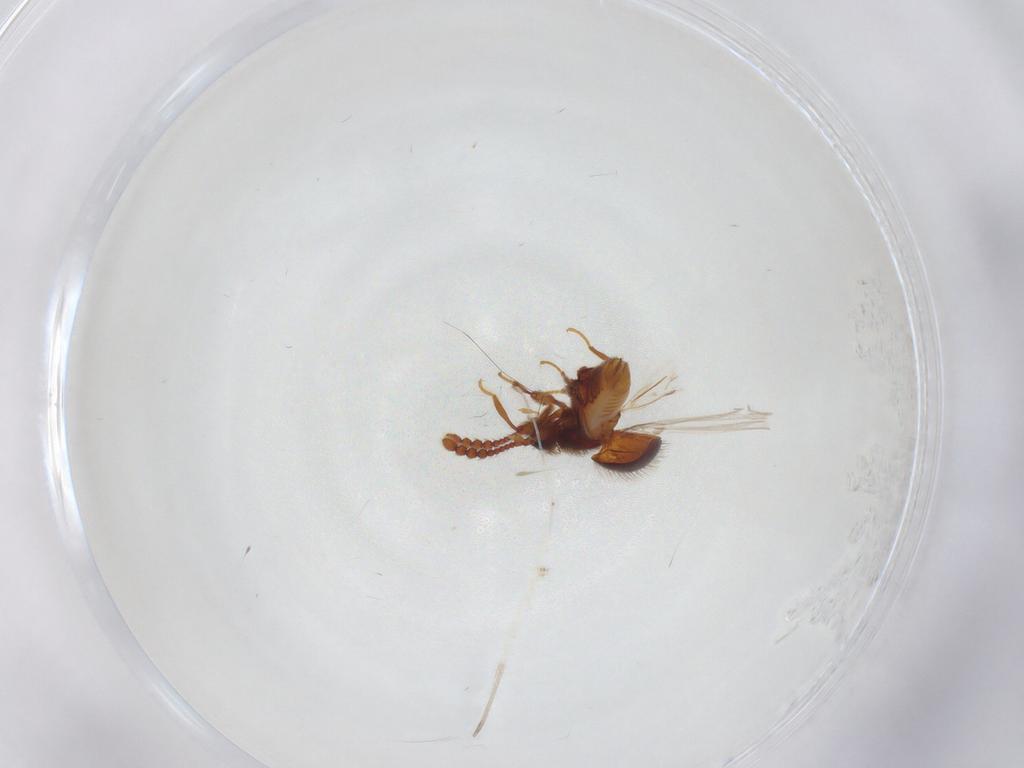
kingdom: Animalia
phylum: Arthropoda
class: Insecta
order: Coleoptera
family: Staphylinidae
